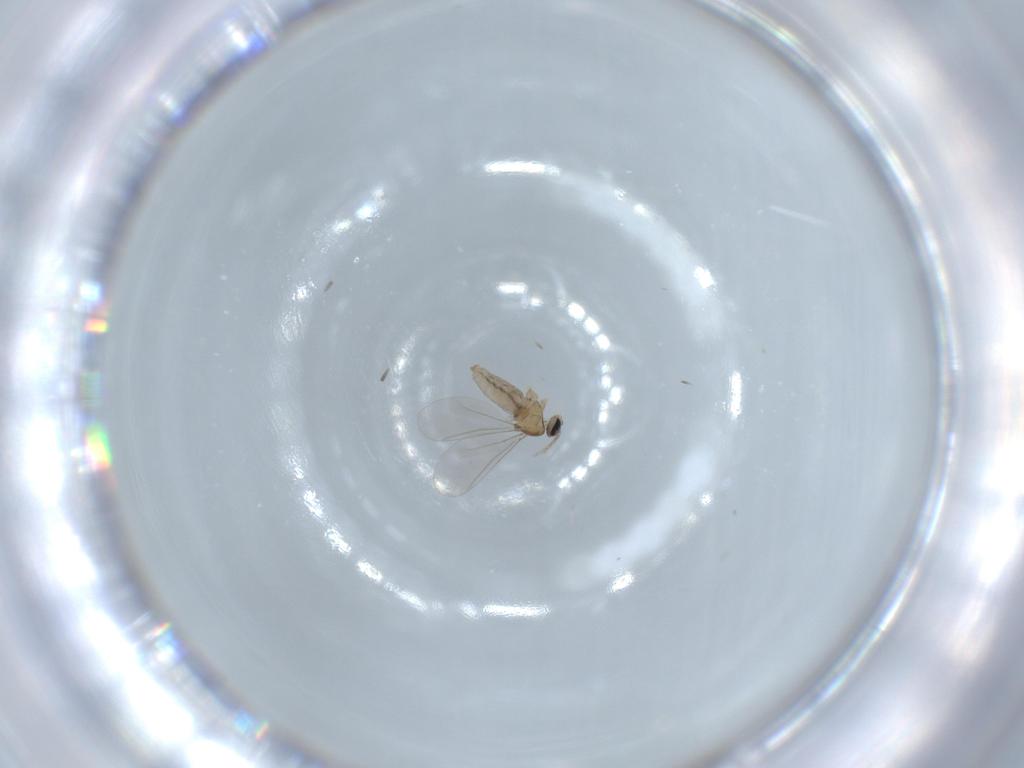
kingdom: Animalia
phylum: Arthropoda
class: Insecta
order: Diptera
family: Cecidomyiidae
